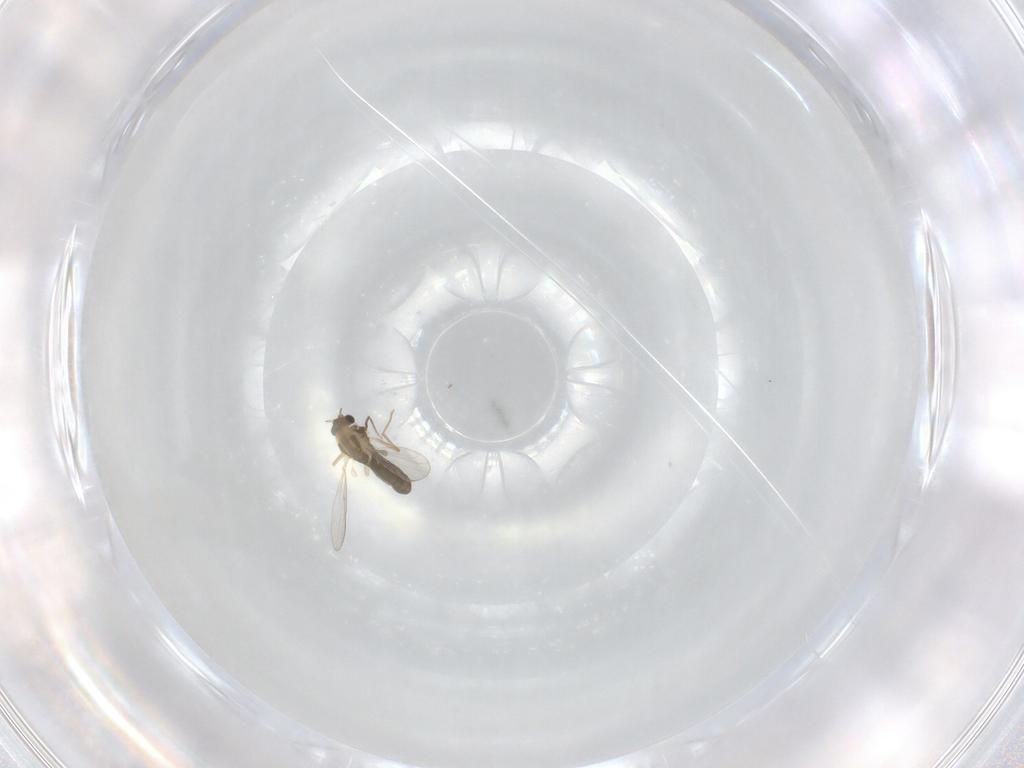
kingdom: Animalia
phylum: Arthropoda
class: Insecta
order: Diptera
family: Chironomidae
